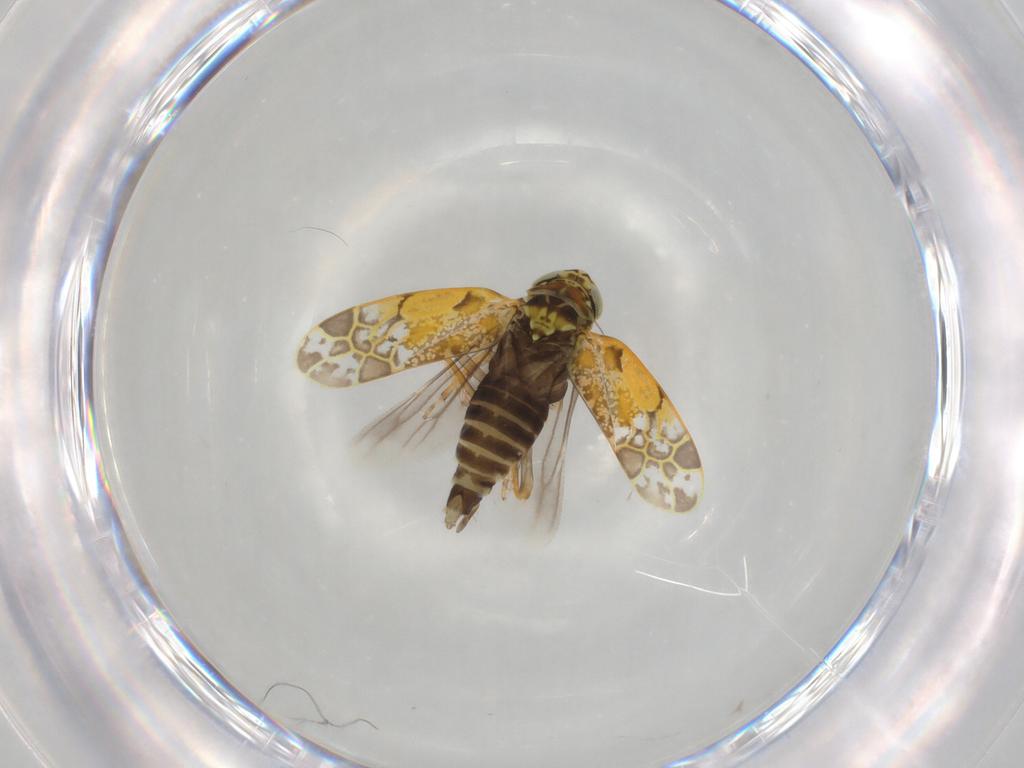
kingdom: Animalia
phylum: Arthropoda
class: Insecta
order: Hemiptera
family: Cicadellidae
